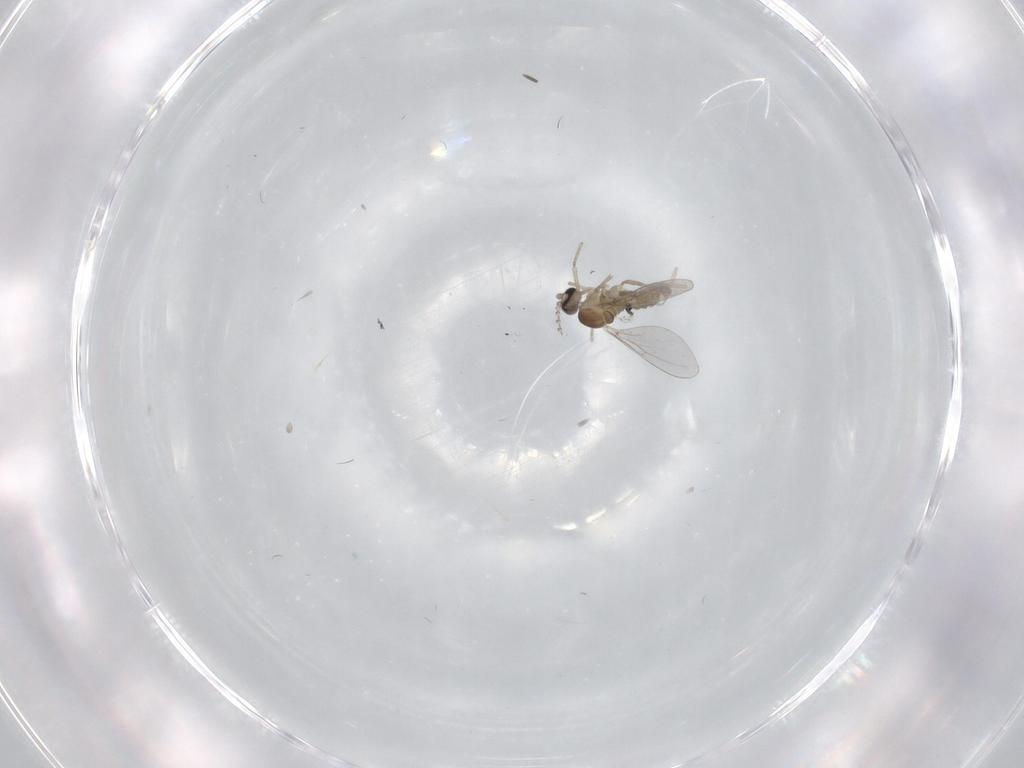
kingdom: Animalia
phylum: Arthropoda
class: Insecta
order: Diptera
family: Cecidomyiidae
